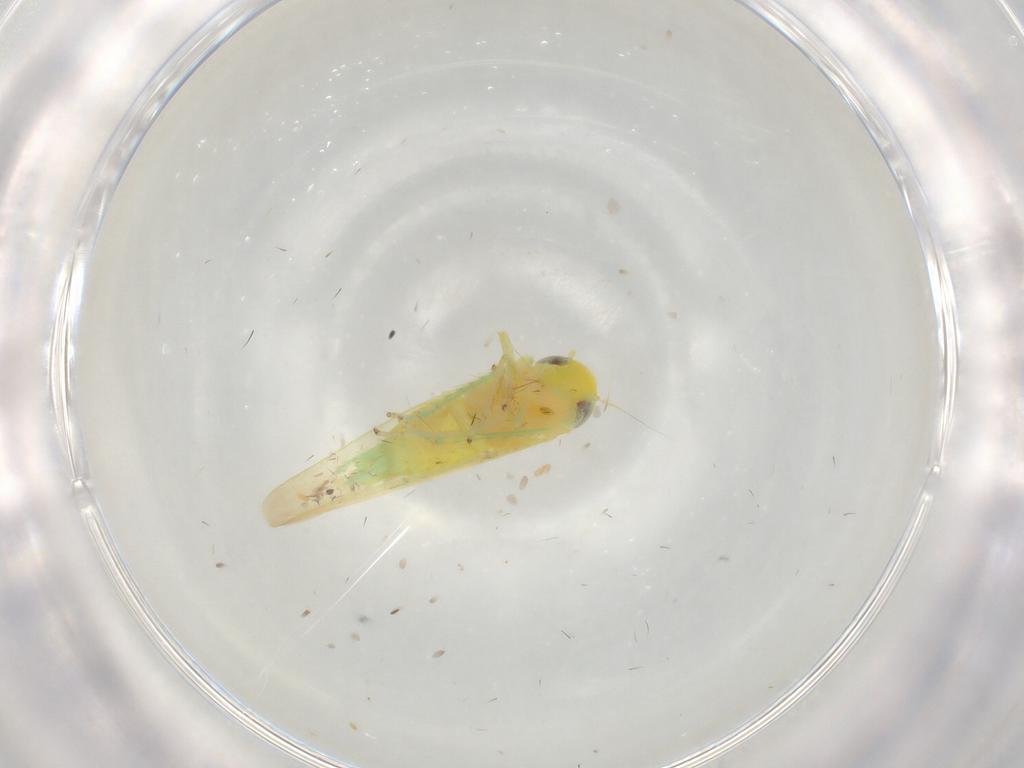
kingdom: Animalia
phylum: Arthropoda
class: Insecta
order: Hemiptera
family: Cicadellidae
